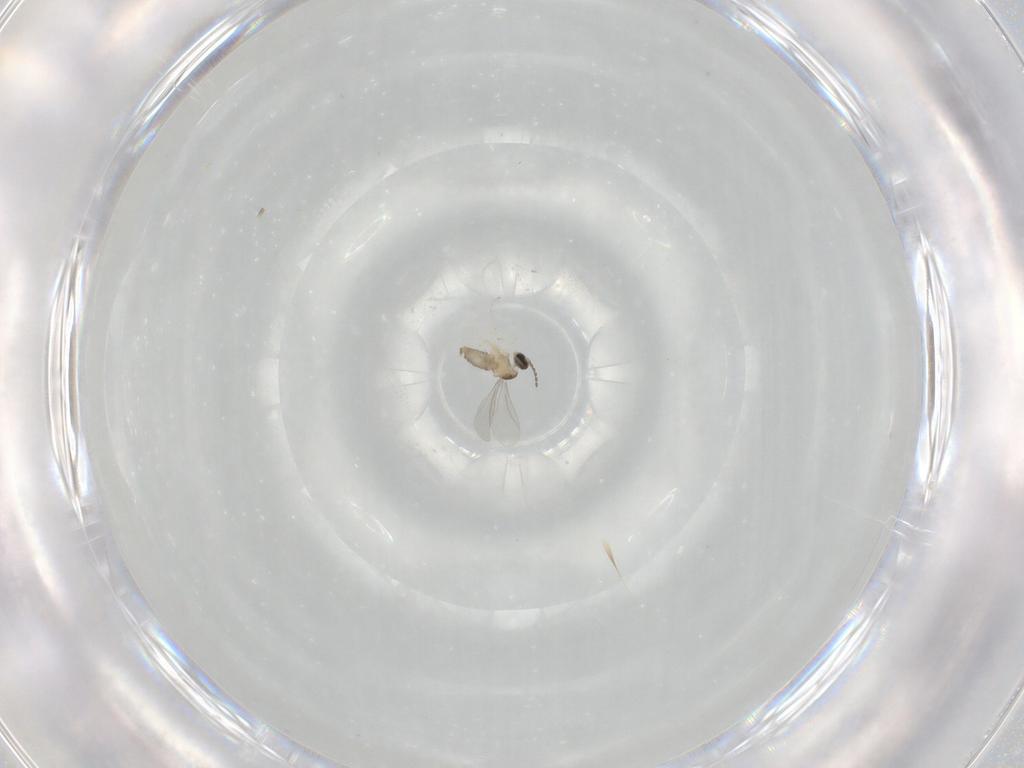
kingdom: Animalia
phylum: Arthropoda
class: Insecta
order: Diptera
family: Cecidomyiidae
